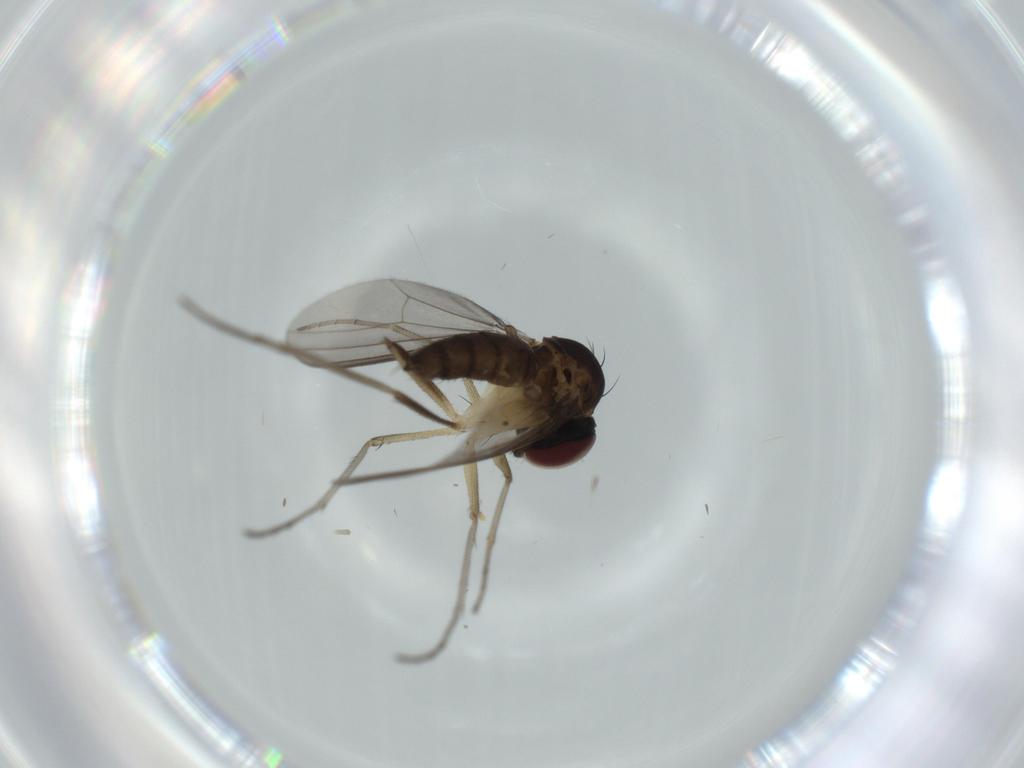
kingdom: Animalia
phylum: Arthropoda
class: Insecta
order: Diptera
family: Dolichopodidae
